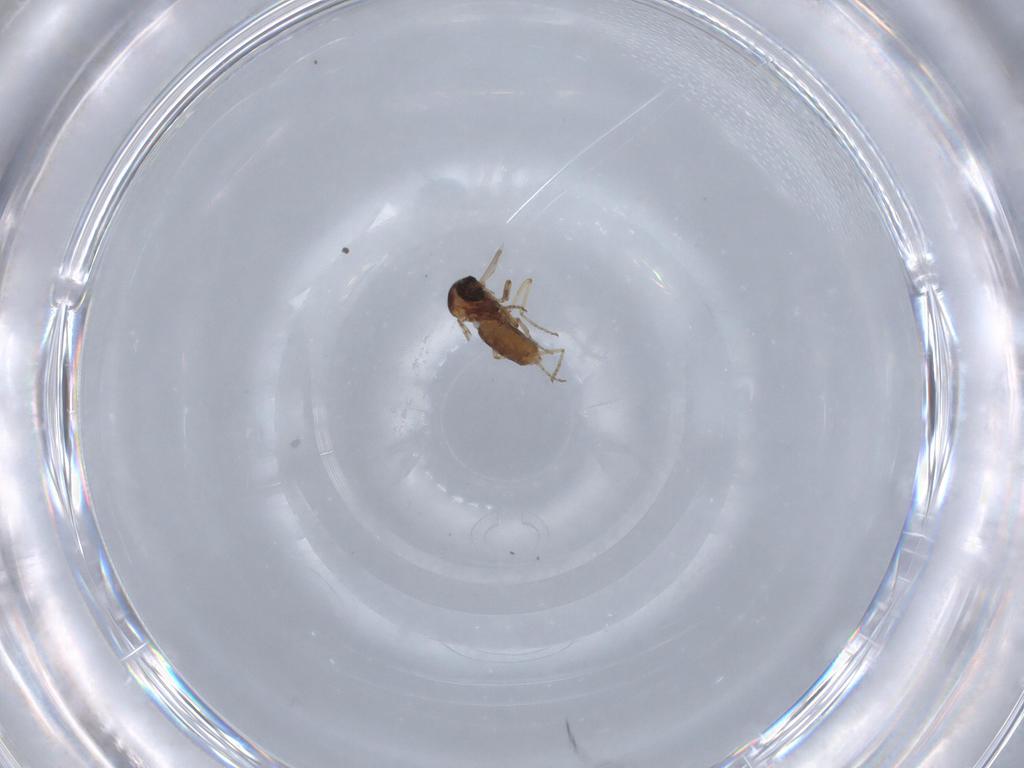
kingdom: Animalia
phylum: Arthropoda
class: Insecta
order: Diptera
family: Ceratopogonidae
